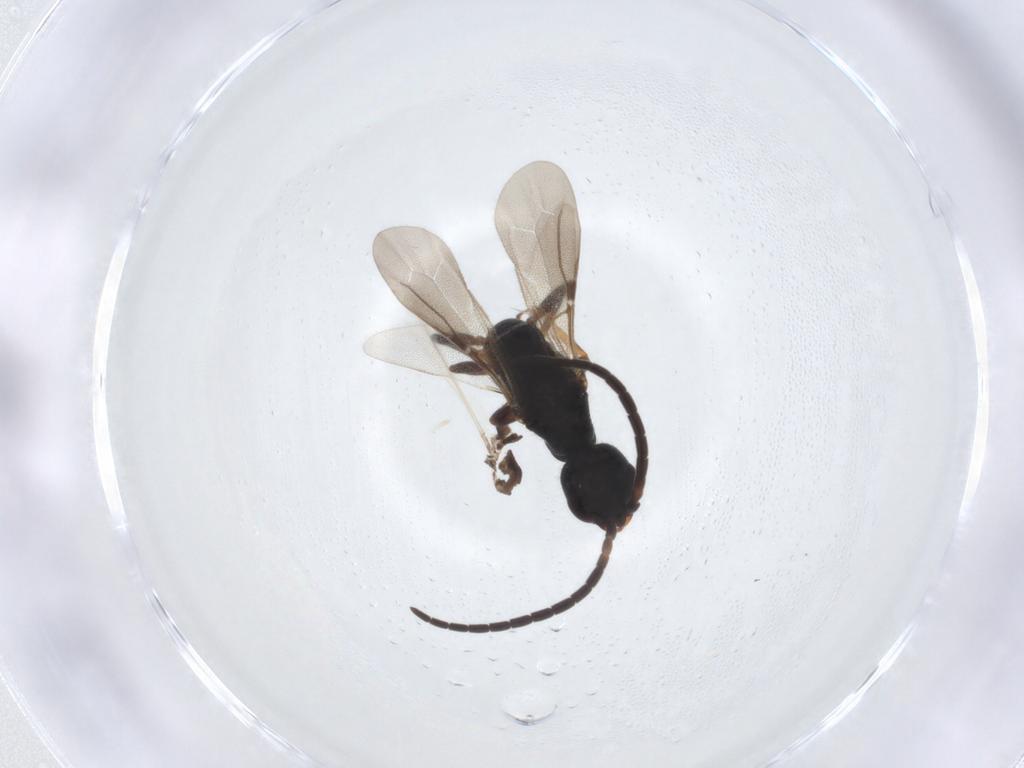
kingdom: Animalia
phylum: Arthropoda
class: Insecta
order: Hymenoptera
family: Bethylidae
